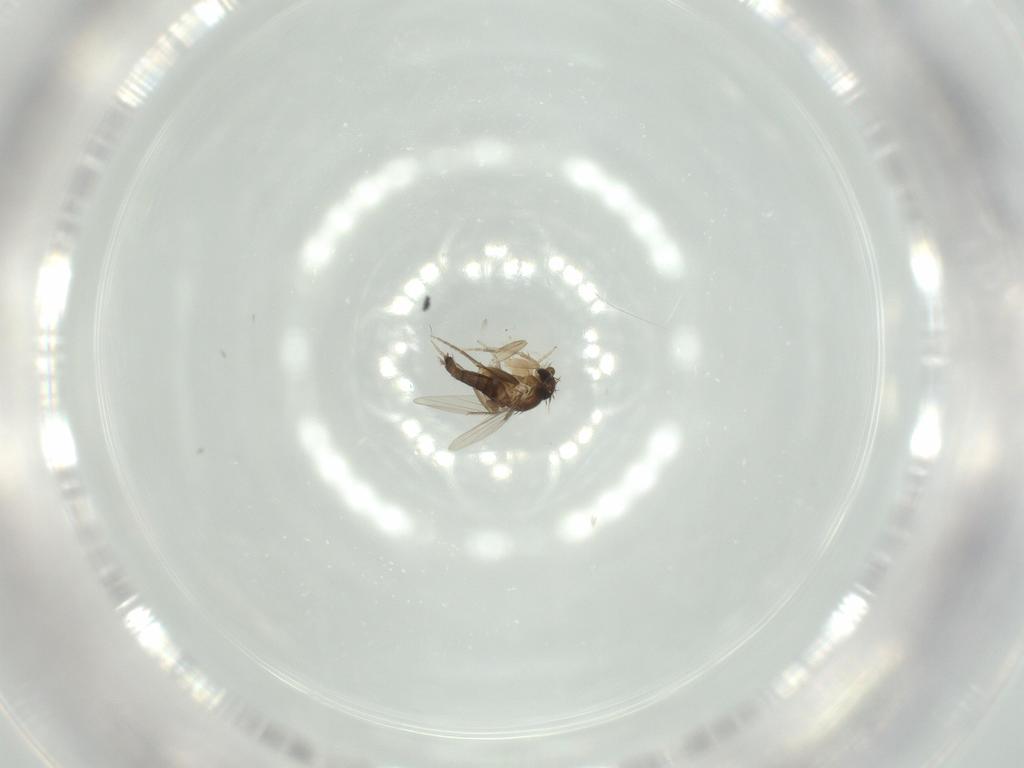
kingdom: Animalia
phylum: Arthropoda
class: Insecta
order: Diptera
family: Phoridae
